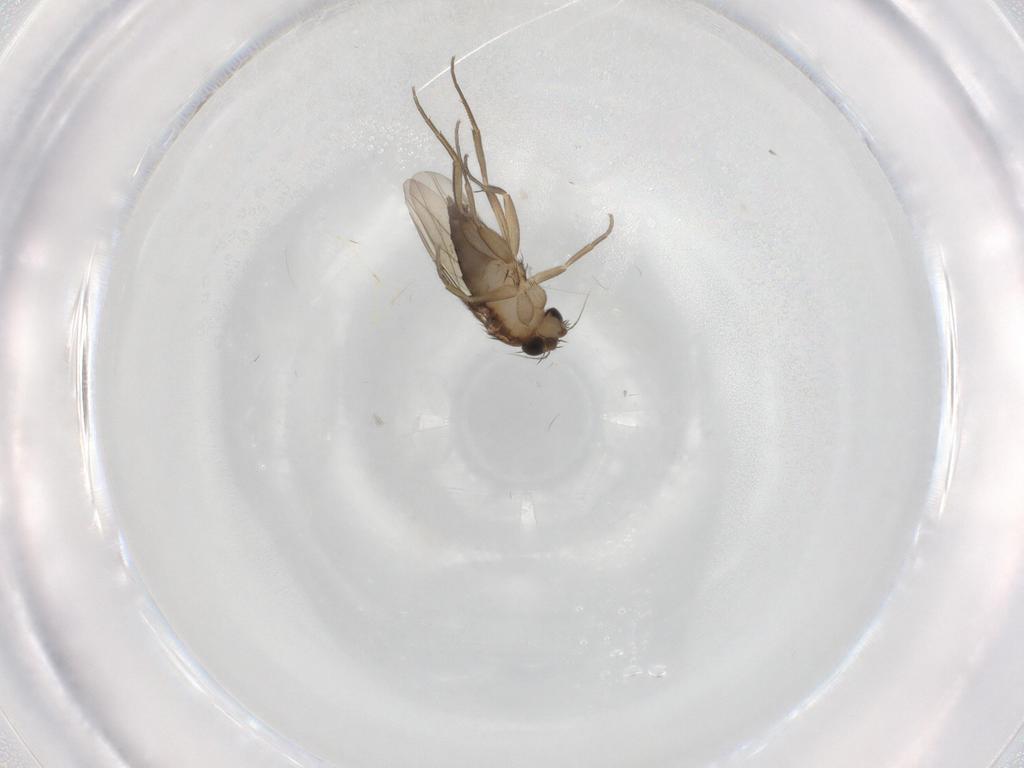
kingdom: Animalia
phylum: Arthropoda
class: Insecta
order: Diptera
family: Phoridae
